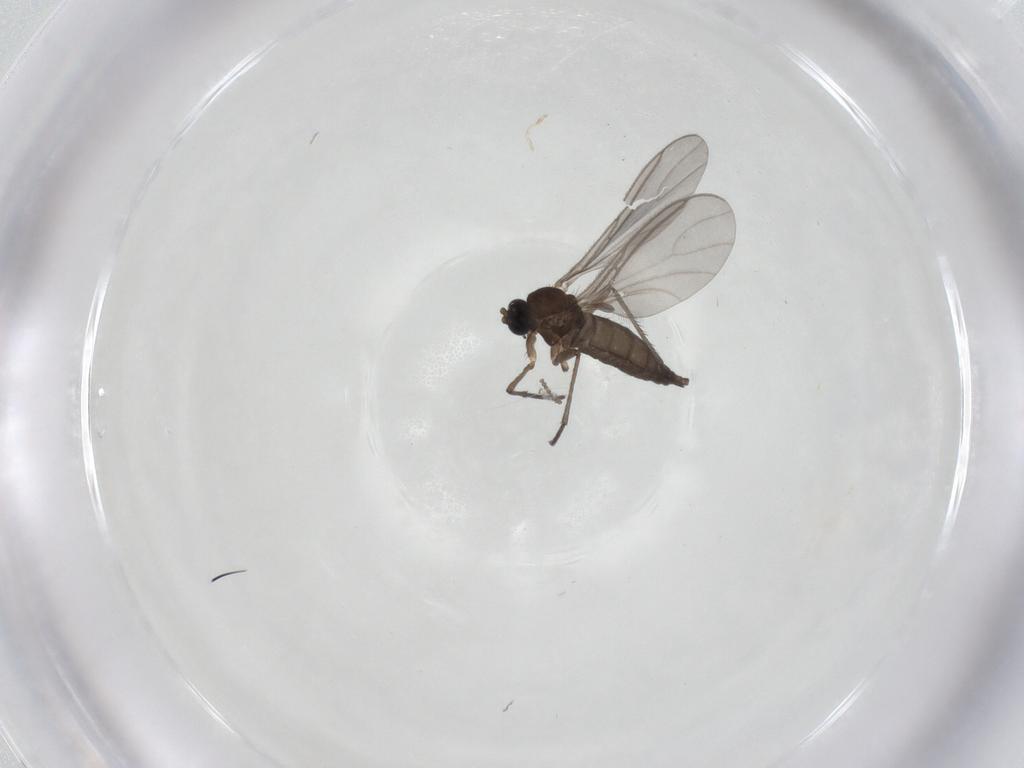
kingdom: Animalia
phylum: Arthropoda
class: Insecta
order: Diptera
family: Sciaridae
